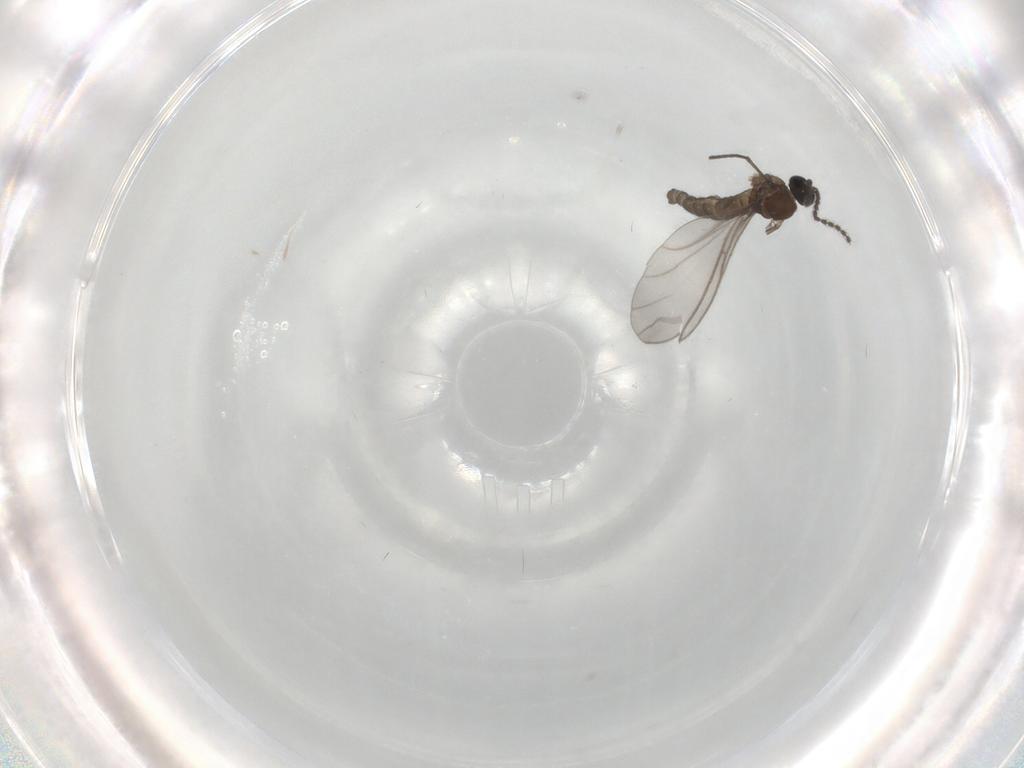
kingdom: Animalia
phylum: Arthropoda
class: Insecta
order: Diptera
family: Sciaridae
